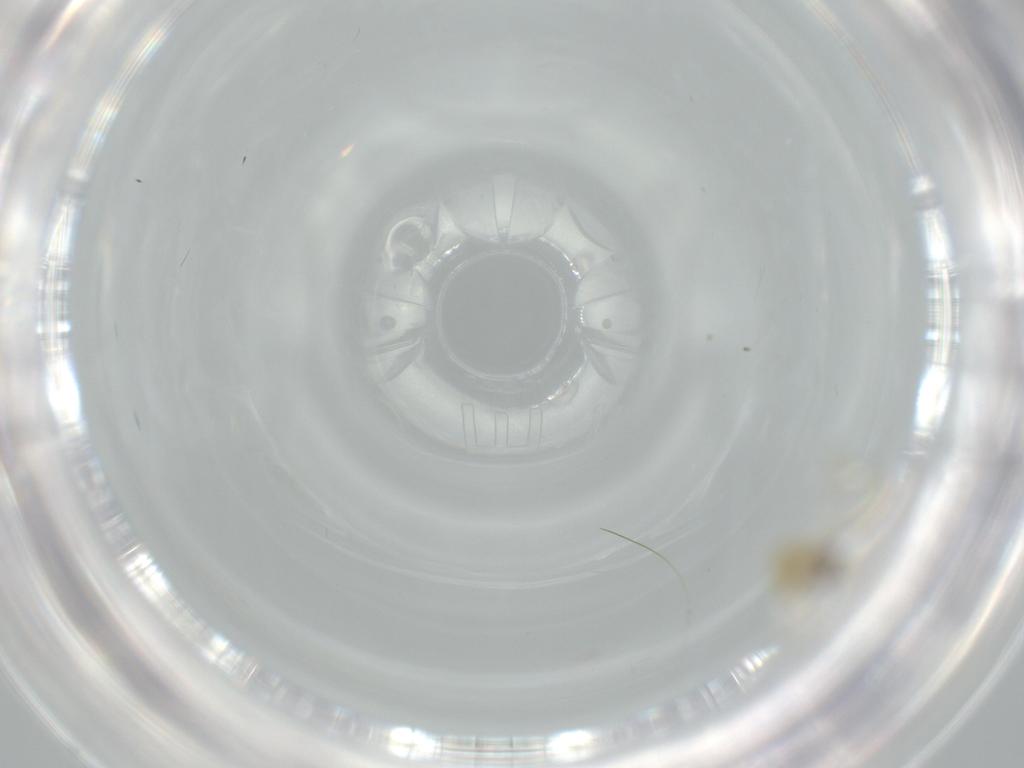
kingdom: Animalia
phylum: Arthropoda
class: Insecta
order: Diptera
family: Chironomidae
